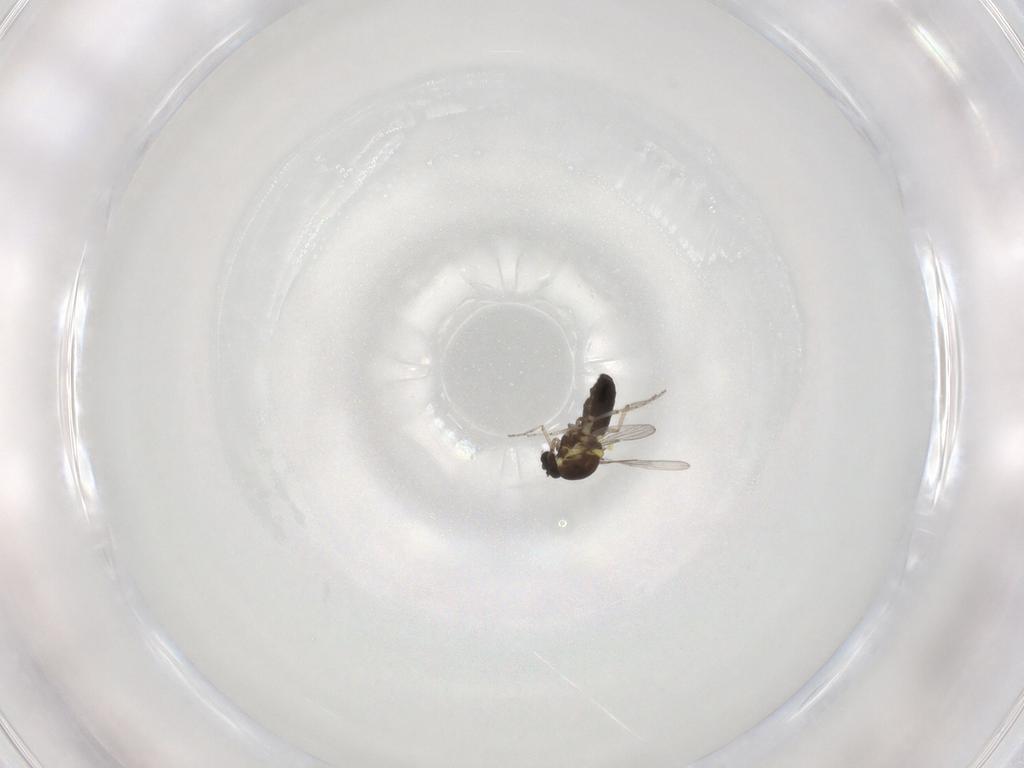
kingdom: Animalia
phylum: Arthropoda
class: Insecta
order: Diptera
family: Ceratopogonidae
